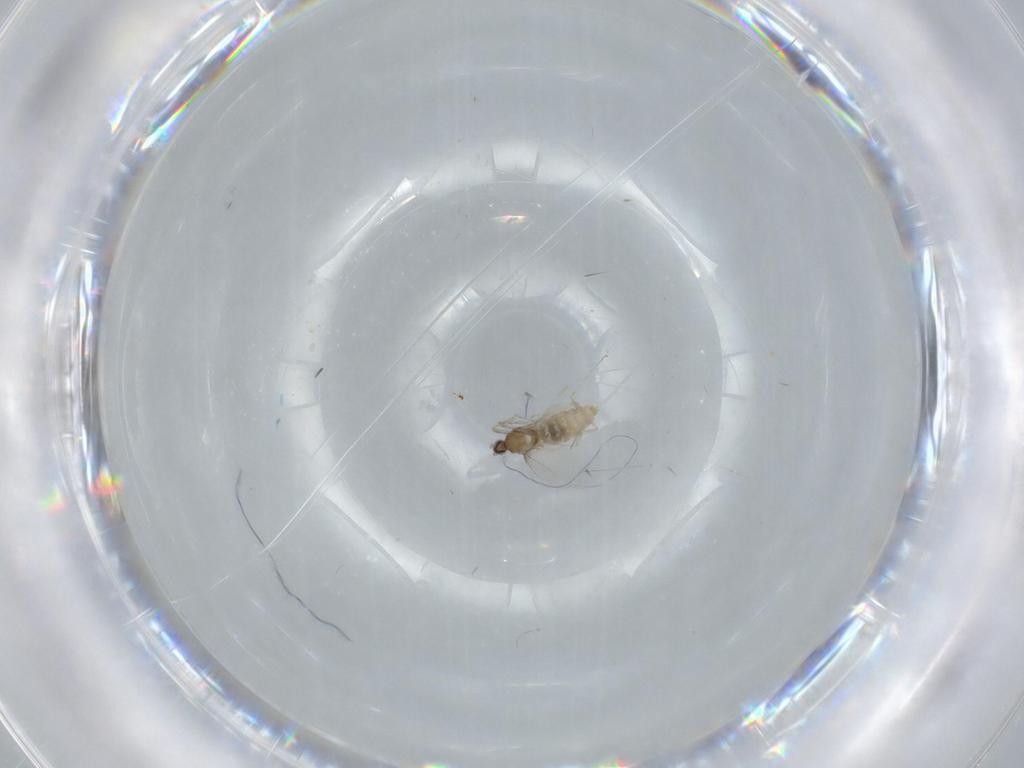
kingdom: Animalia
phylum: Arthropoda
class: Insecta
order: Diptera
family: Cecidomyiidae
